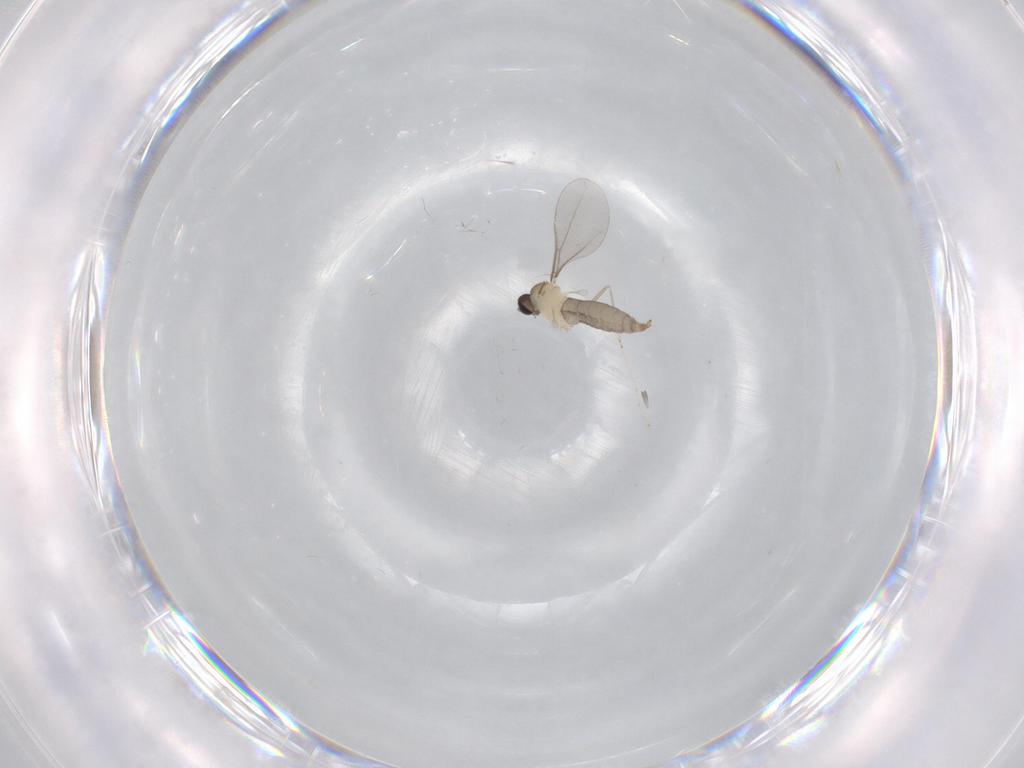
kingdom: Animalia
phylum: Arthropoda
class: Insecta
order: Diptera
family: Cecidomyiidae
